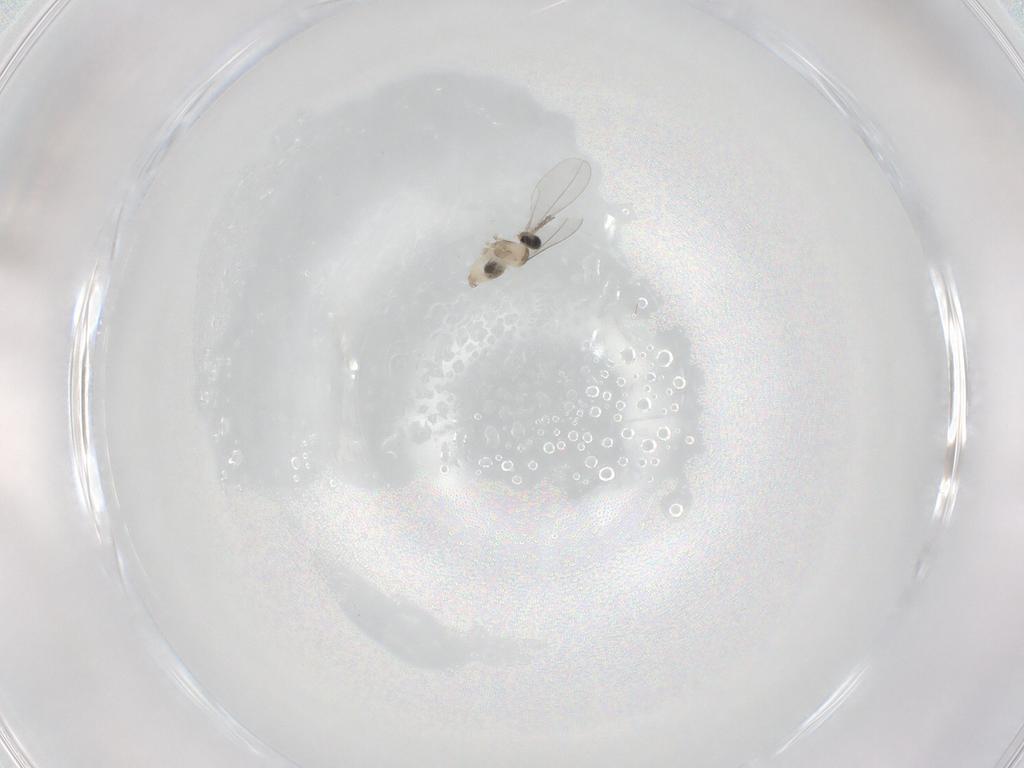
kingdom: Animalia
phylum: Arthropoda
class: Insecta
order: Diptera
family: Cecidomyiidae
